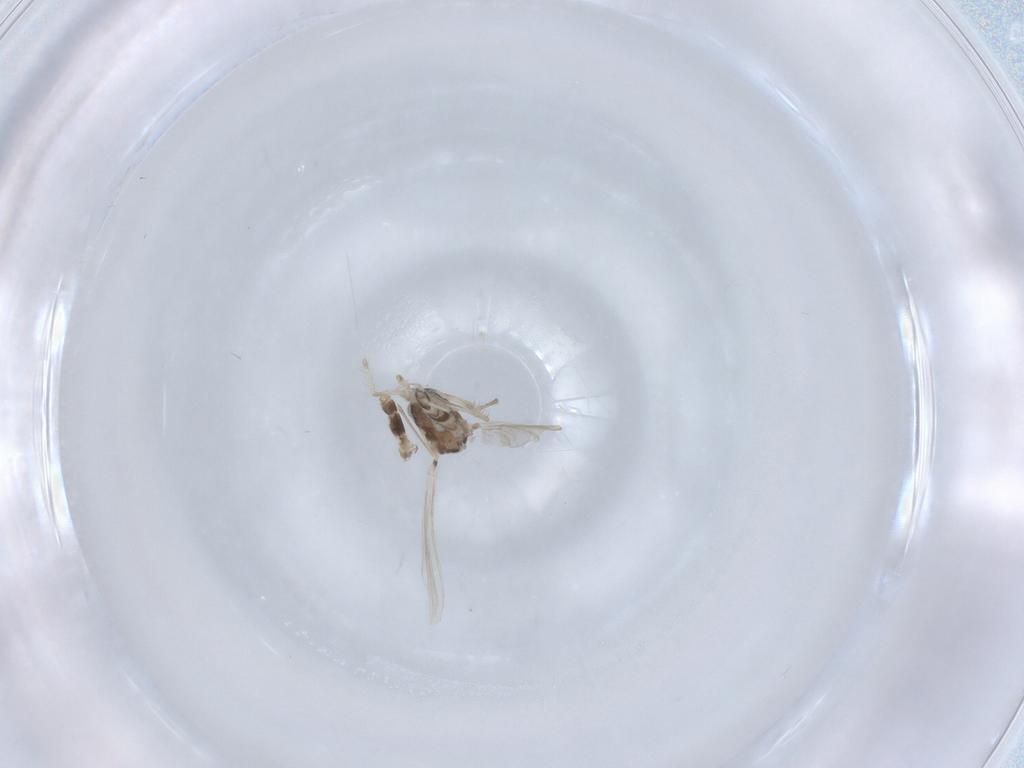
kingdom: Animalia
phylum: Arthropoda
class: Insecta
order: Diptera
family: Chironomidae
